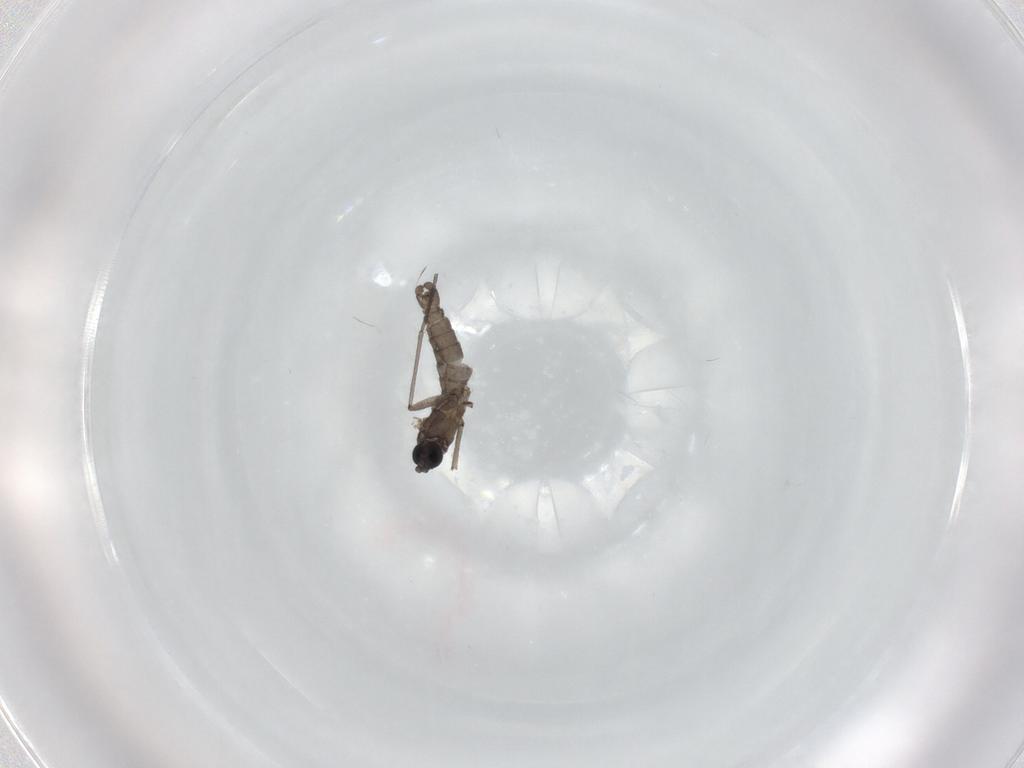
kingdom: Animalia
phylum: Arthropoda
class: Insecta
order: Diptera
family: Sciaridae
